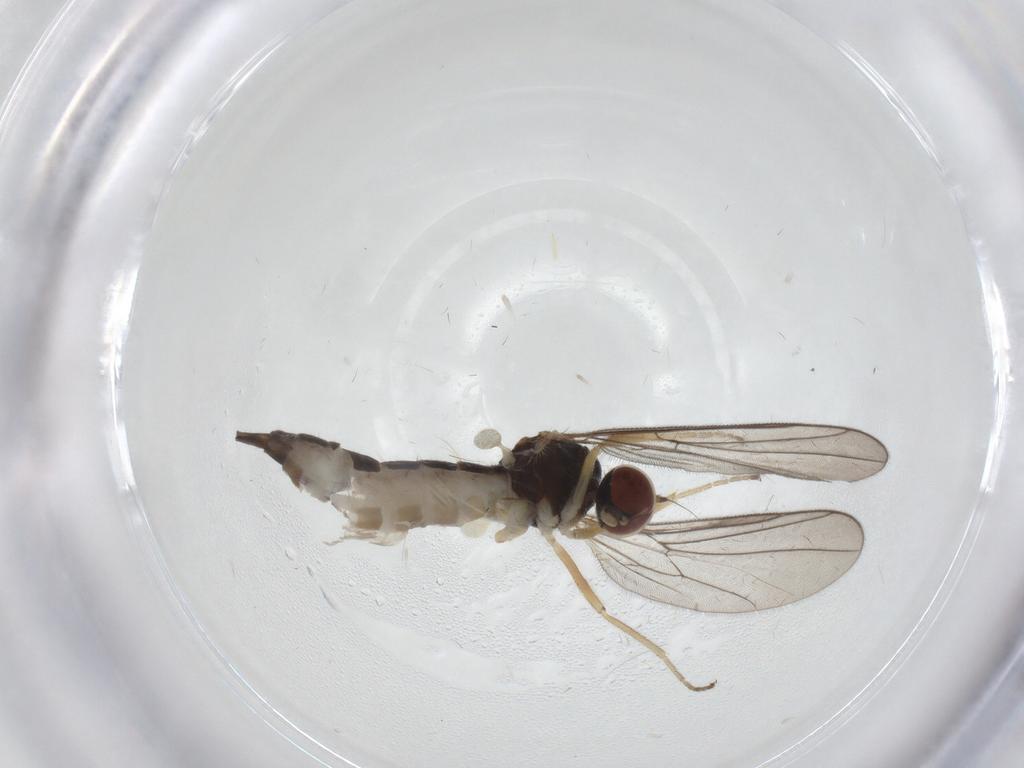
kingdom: Animalia
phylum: Arthropoda
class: Insecta
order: Diptera
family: Hybotidae
